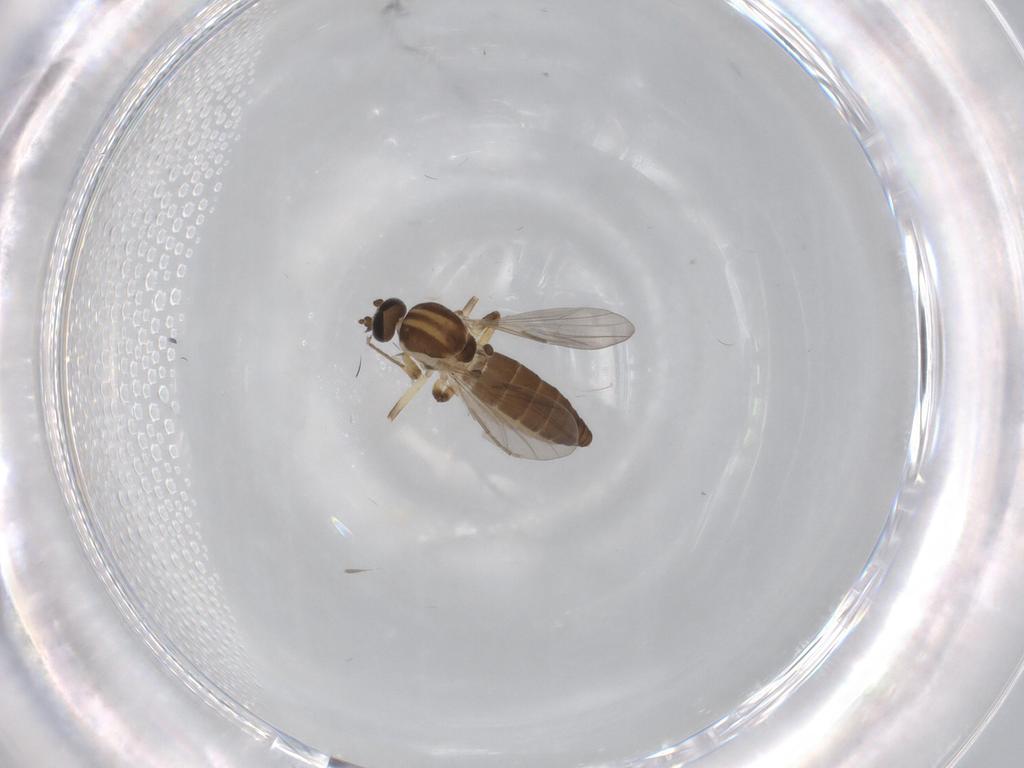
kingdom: Animalia
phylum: Arthropoda
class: Insecta
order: Diptera
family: Ceratopogonidae
